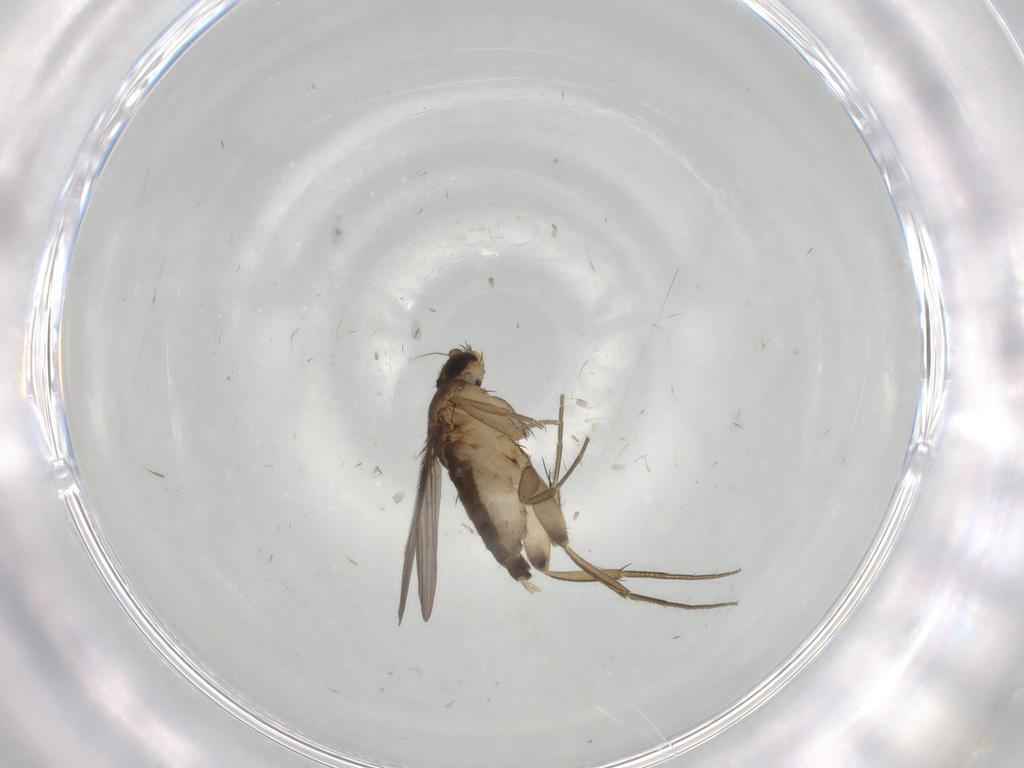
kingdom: Animalia
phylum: Arthropoda
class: Insecta
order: Diptera
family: Phoridae
